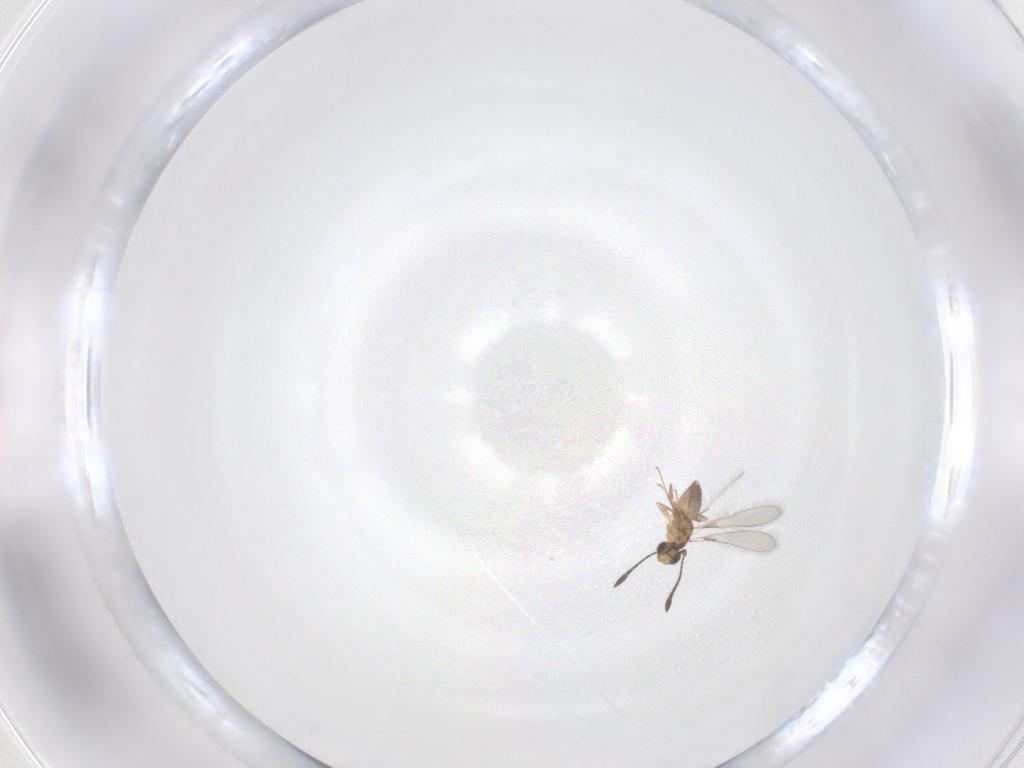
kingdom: Animalia
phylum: Arthropoda
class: Insecta
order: Hymenoptera
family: Mymaridae
